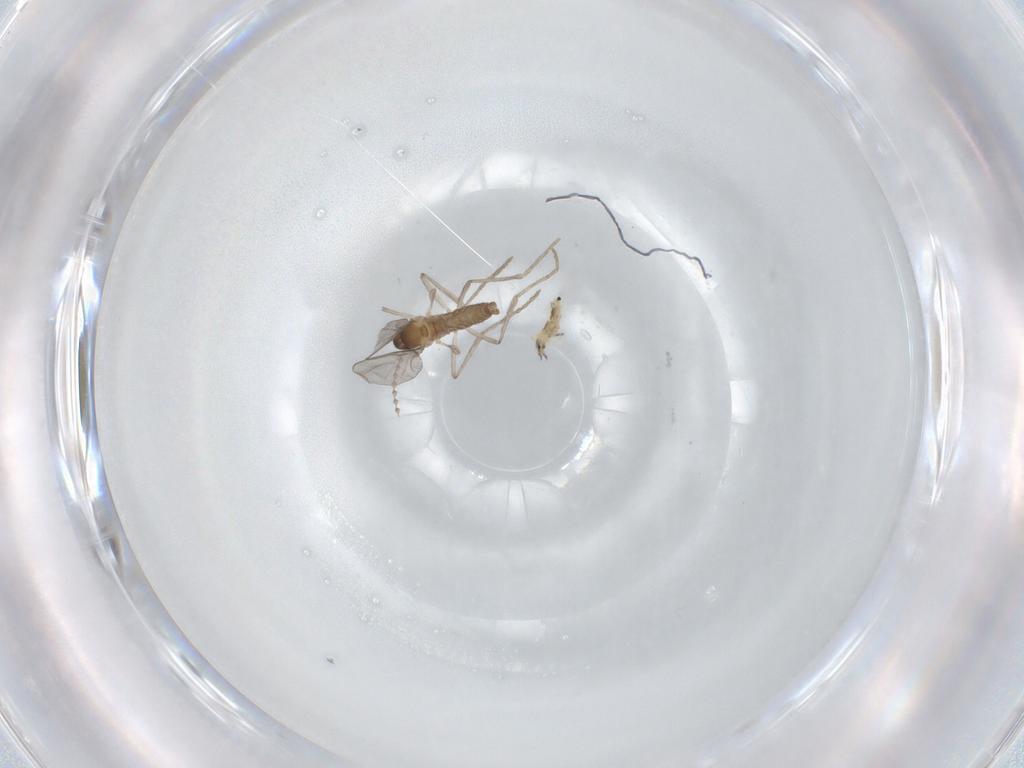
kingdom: Animalia
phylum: Arthropoda
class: Insecta
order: Diptera
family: Cecidomyiidae
